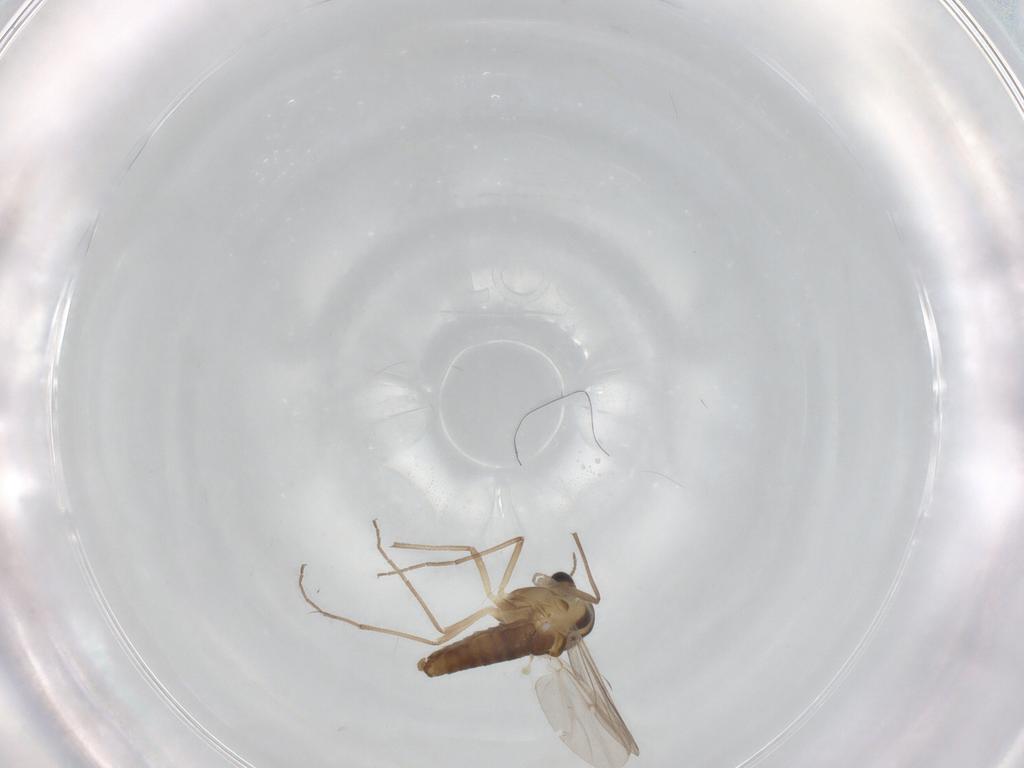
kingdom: Animalia
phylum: Arthropoda
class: Insecta
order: Diptera
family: Chironomidae
